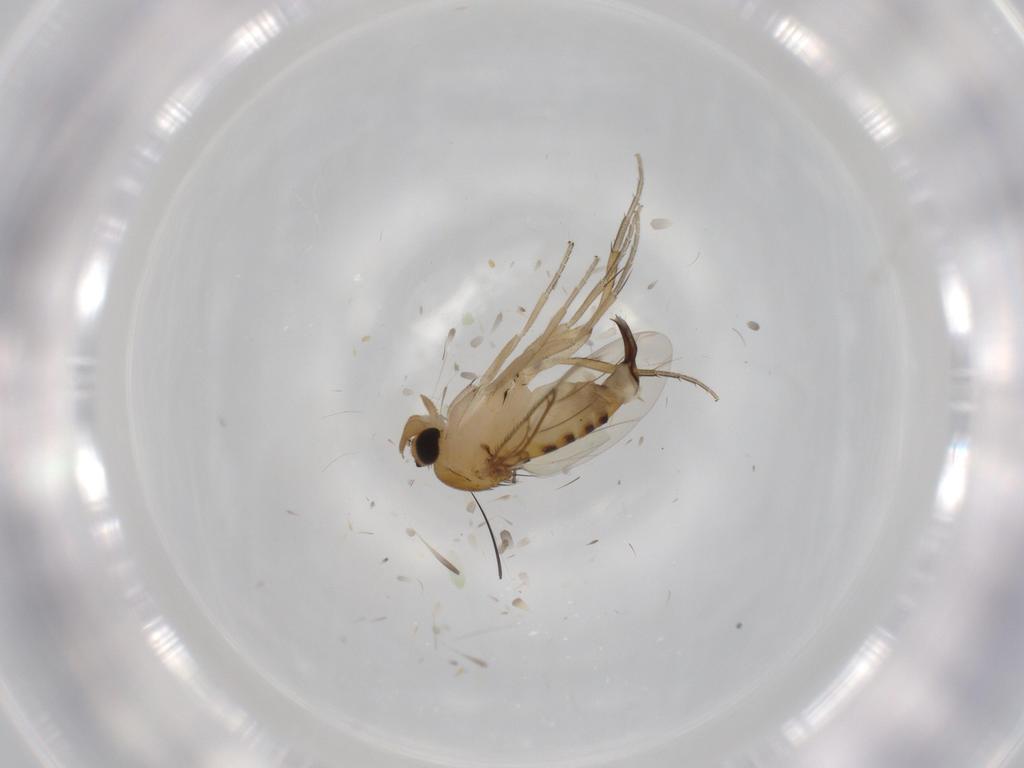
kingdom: Animalia
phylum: Arthropoda
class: Insecta
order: Diptera
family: Phoridae
